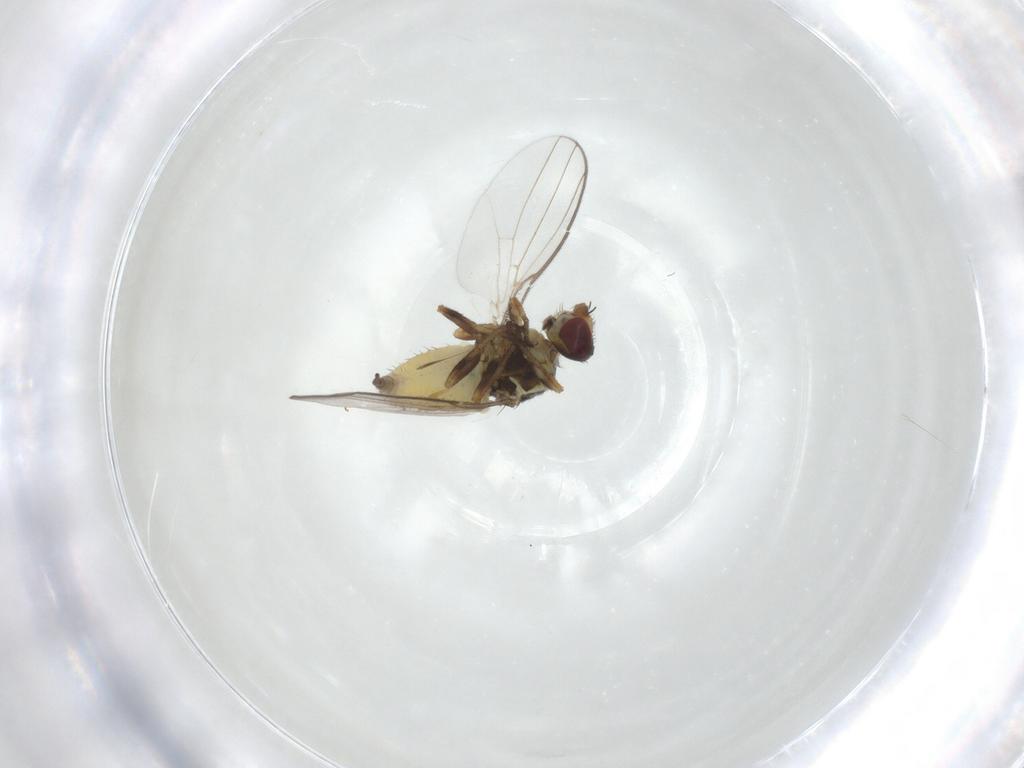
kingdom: Animalia
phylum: Arthropoda
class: Insecta
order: Diptera
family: Chloropidae
